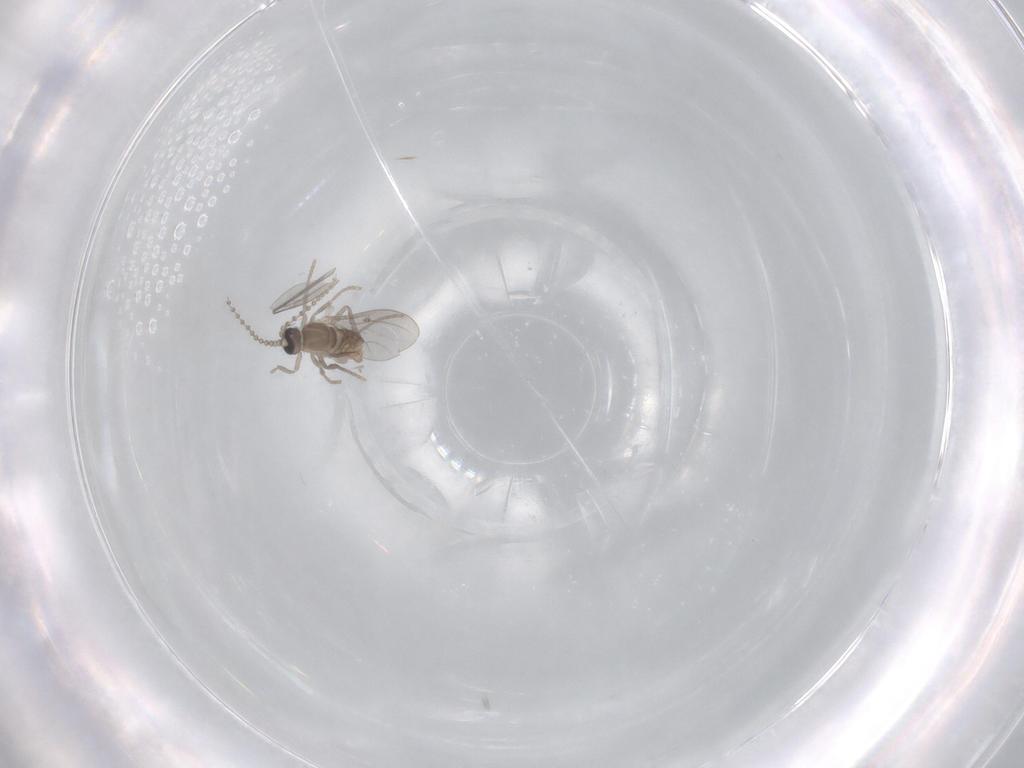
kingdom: Animalia
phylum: Arthropoda
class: Insecta
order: Diptera
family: Cecidomyiidae
